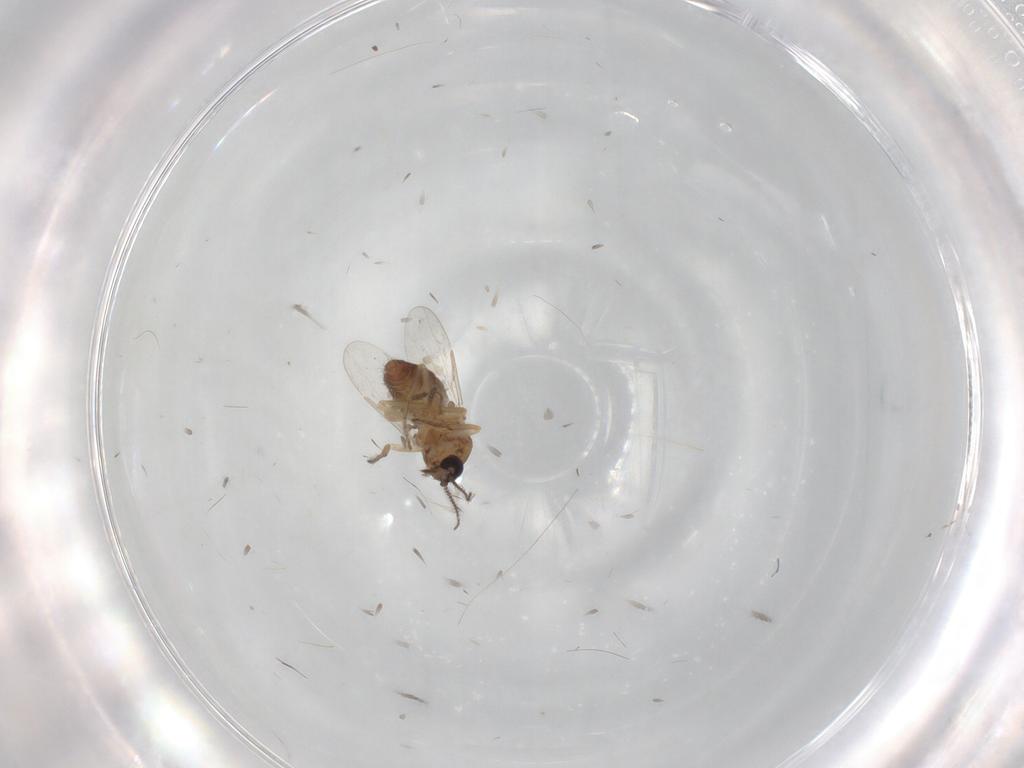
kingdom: Animalia
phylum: Arthropoda
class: Insecta
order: Diptera
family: Ceratopogonidae
